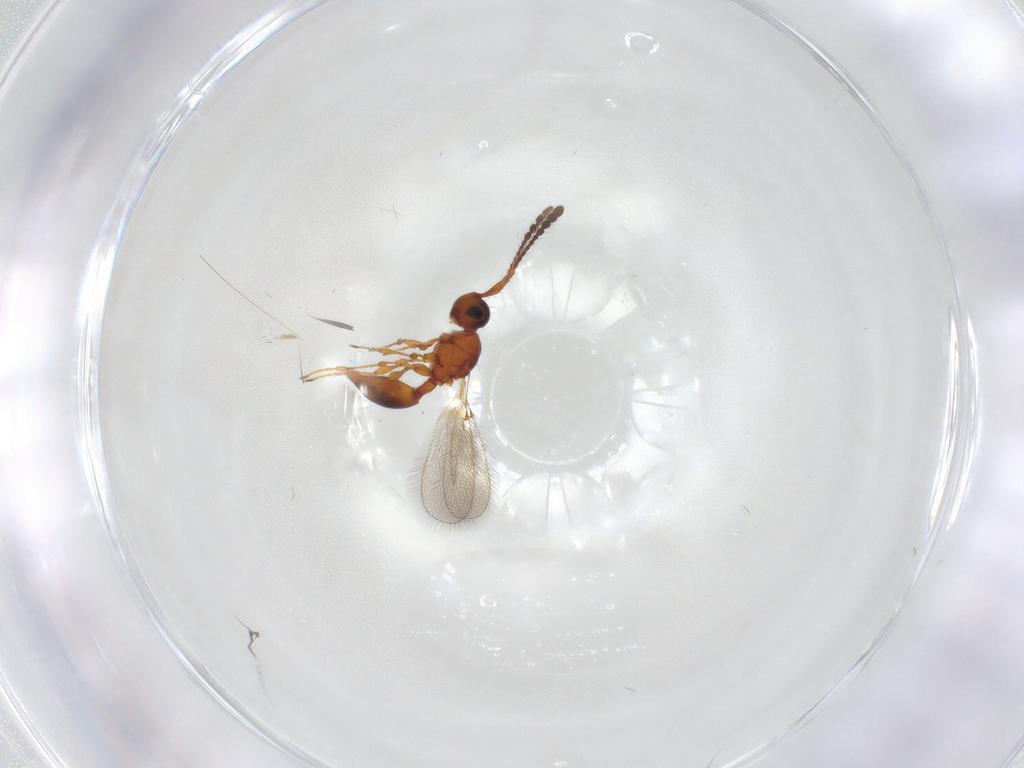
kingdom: Animalia
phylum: Arthropoda
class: Insecta
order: Hymenoptera
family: Diapriidae
